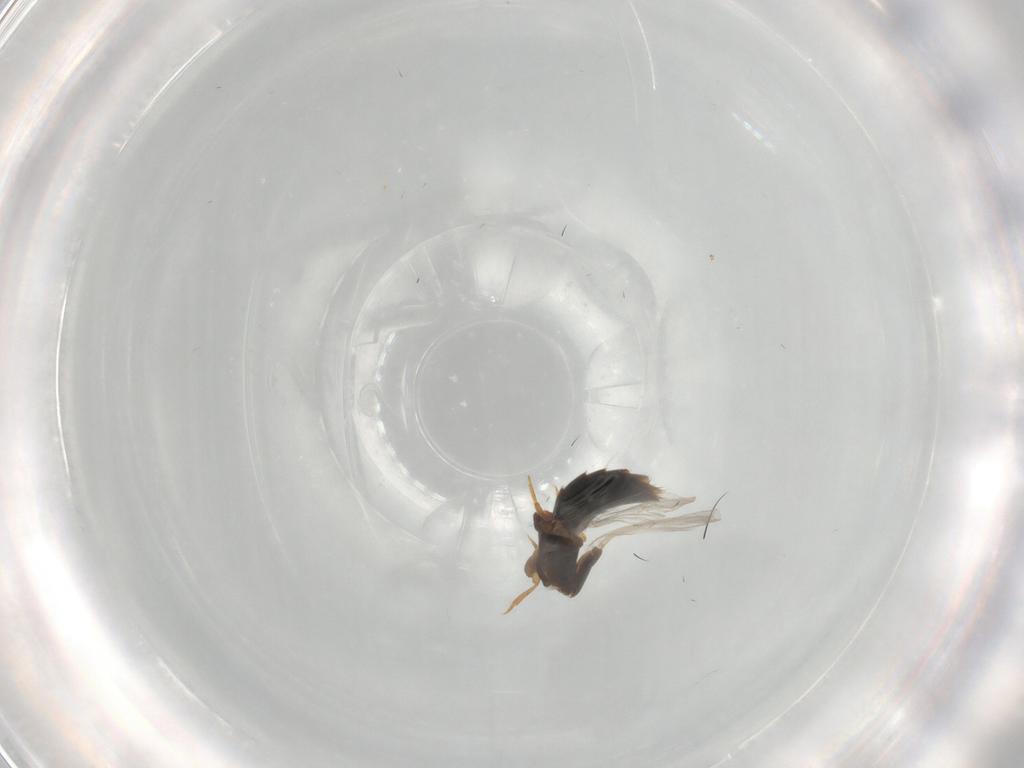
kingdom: Animalia
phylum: Arthropoda
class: Insecta
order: Coleoptera
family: Staphylinidae
